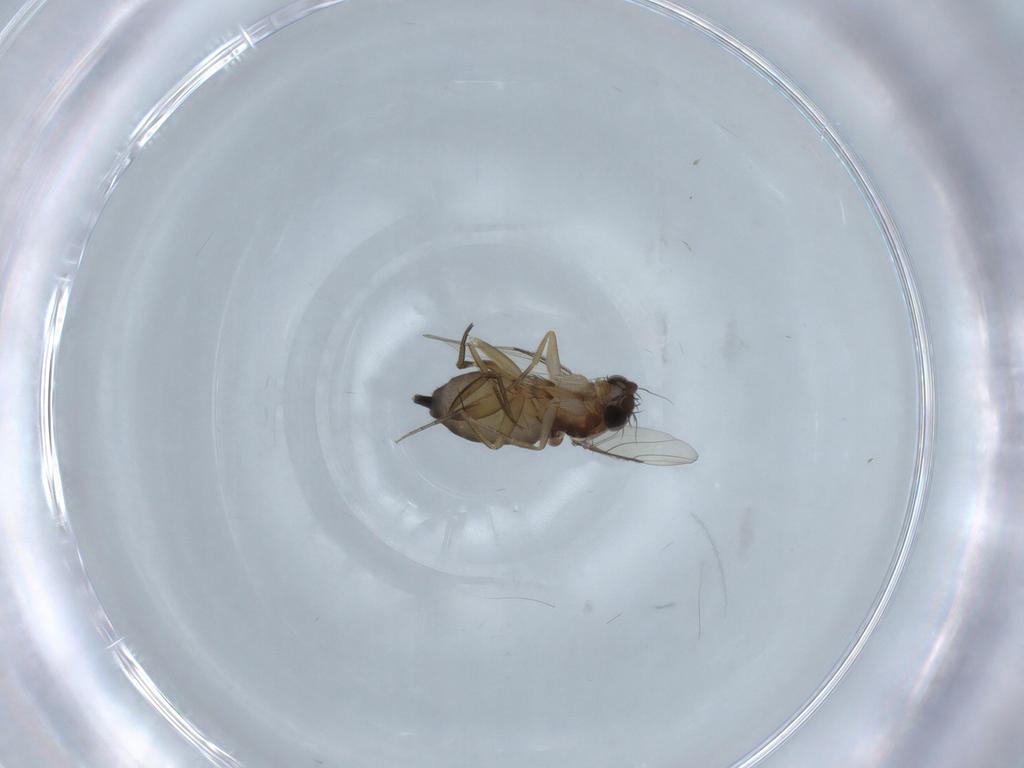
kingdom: Animalia
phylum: Arthropoda
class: Insecta
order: Diptera
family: Phoridae
